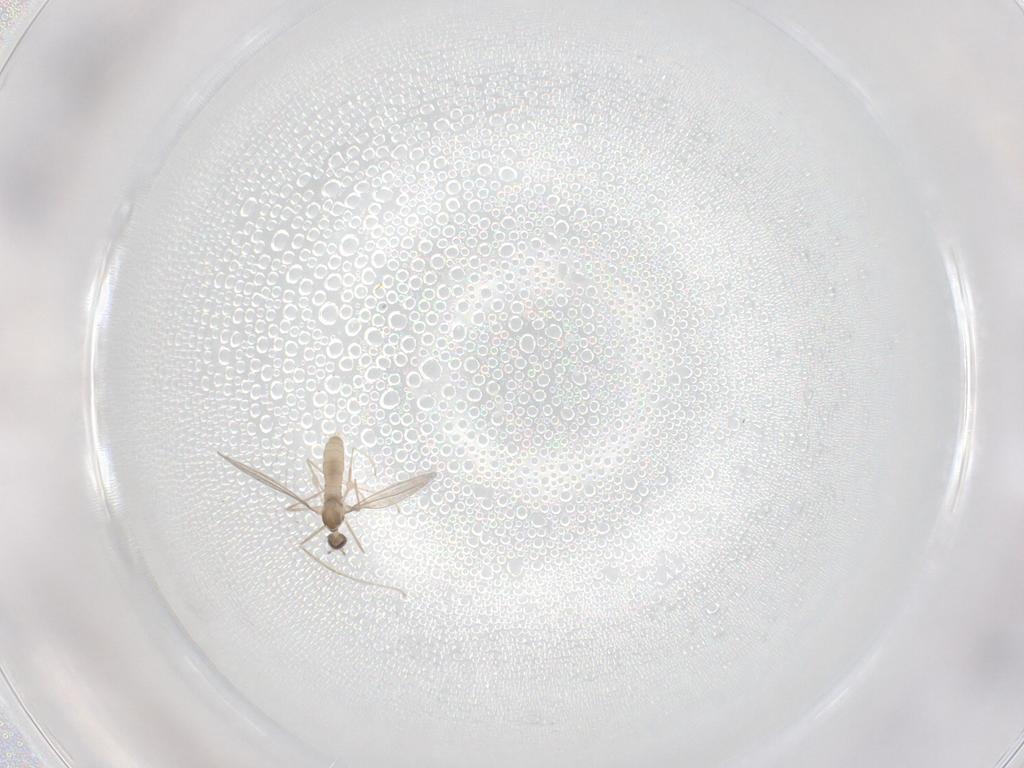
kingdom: Animalia
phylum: Arthropoda
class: Insecta
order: Diptera
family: Cecidomyiidae
